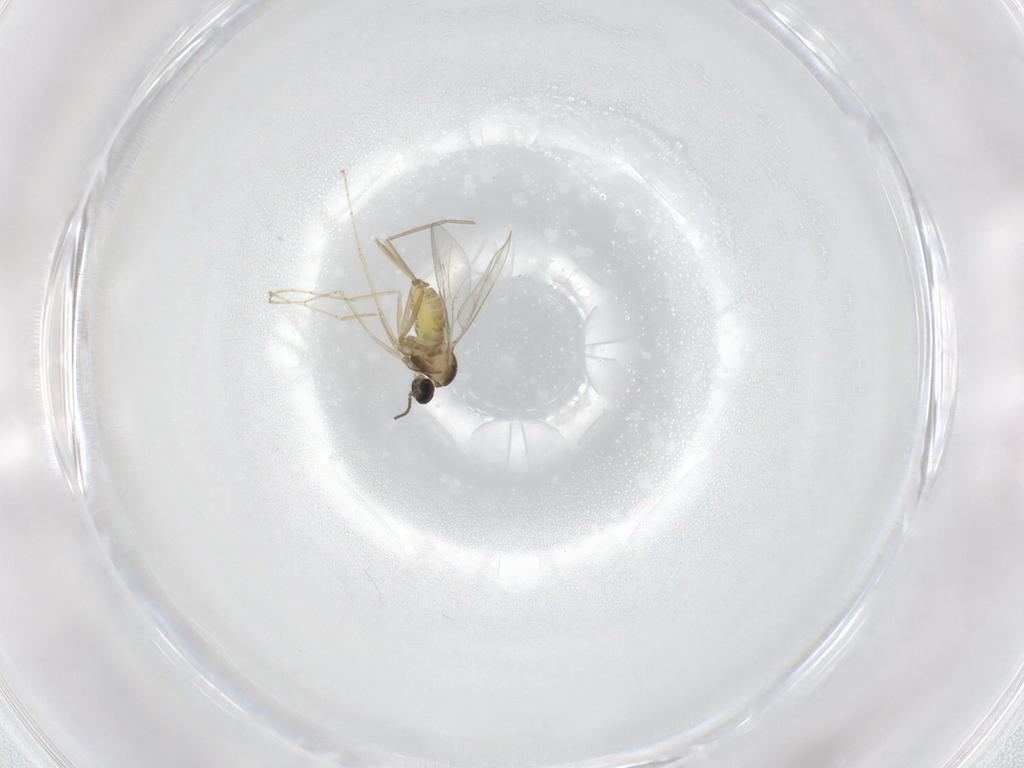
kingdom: Animalia
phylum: Arthropoda
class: Insecta
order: Diptera
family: Cecidomyiidae
